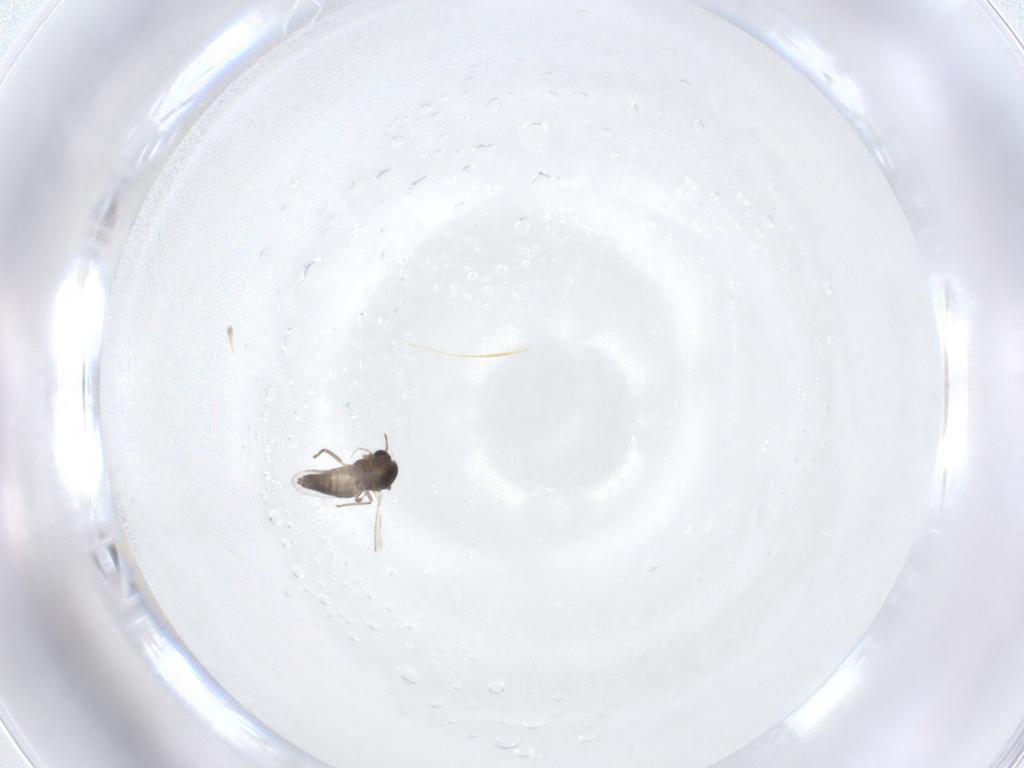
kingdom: Animalia
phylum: Arthropoda
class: Insecta
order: Diptera
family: Chironomidae
